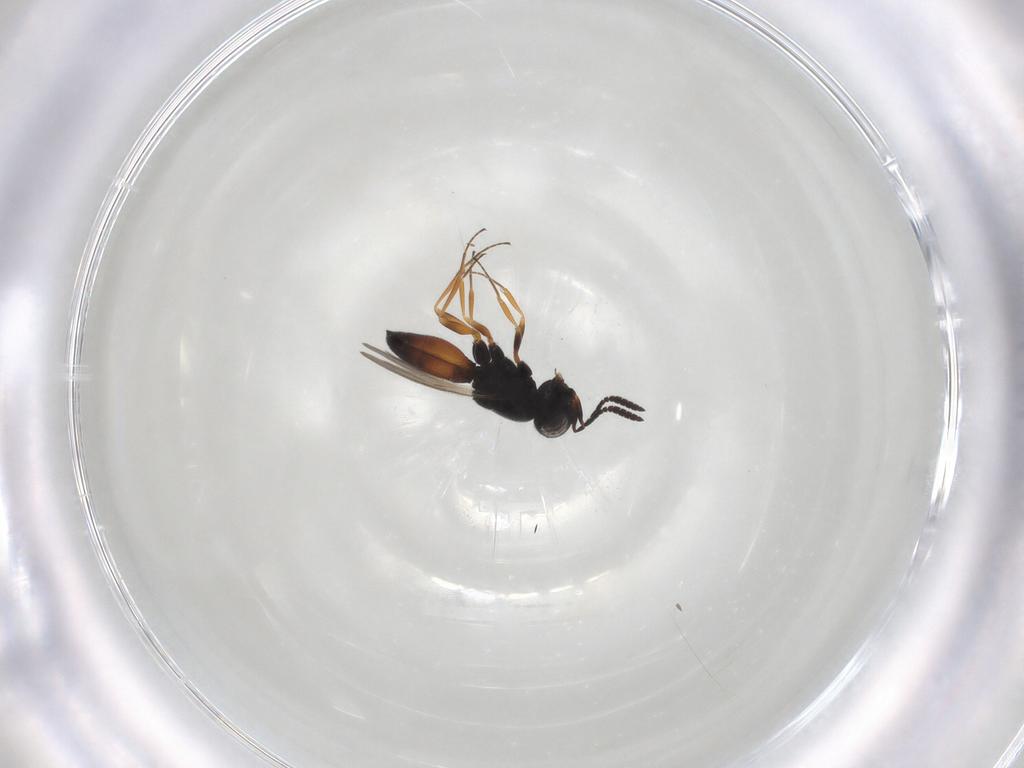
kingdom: Animalia
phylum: Arthropoda
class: Insecta
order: Hymenoptera
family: Scelionidae
